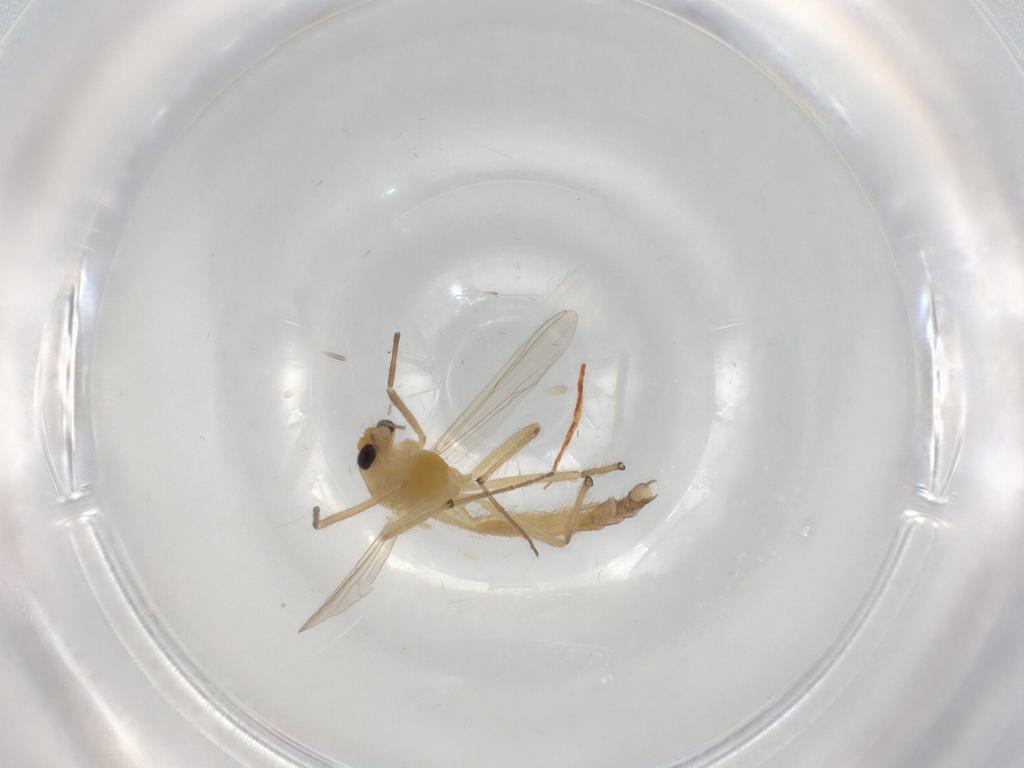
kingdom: Animalia
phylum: Arthropoda
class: Insecta
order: Diptera
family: Chironomidae
